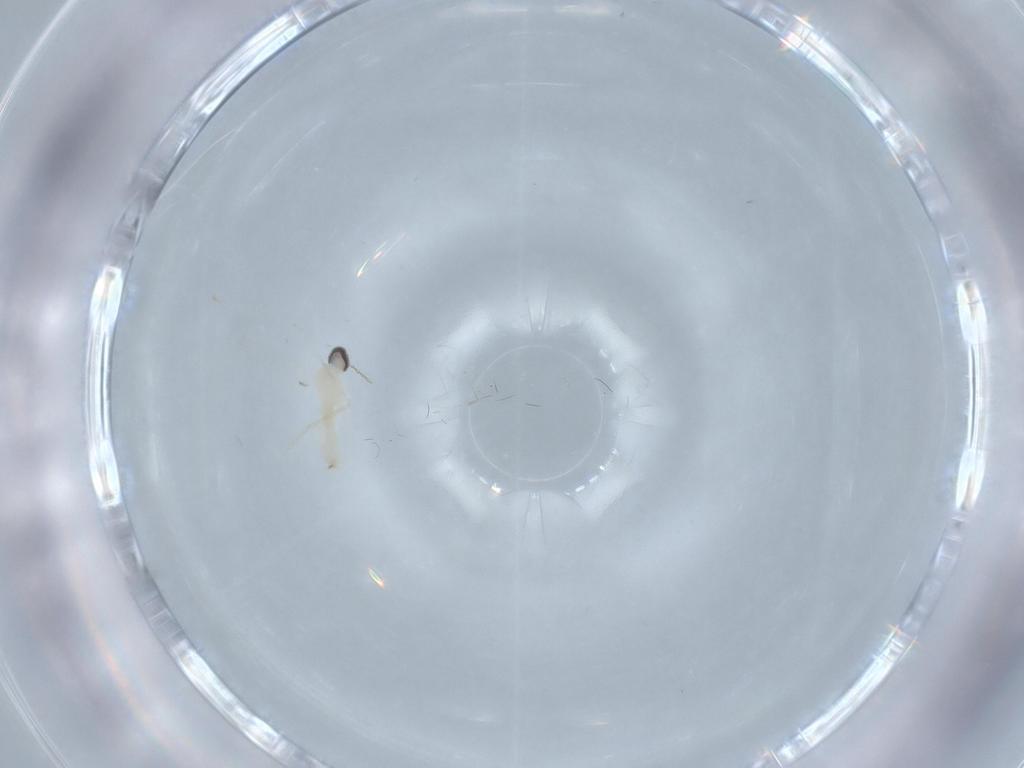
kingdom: Animalia
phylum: Arthropoda
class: Insecta
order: Diptera
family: Cecidomyiidae
